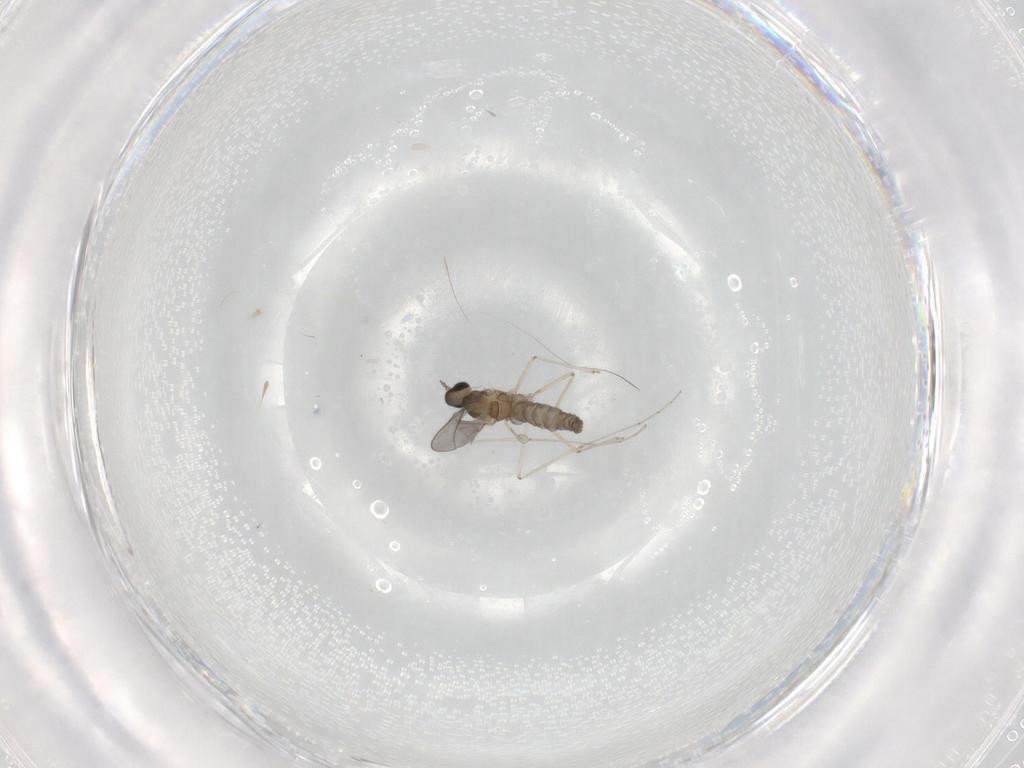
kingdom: Animalia
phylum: Arthropoda
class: Insecta
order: Diptera
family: Cecidomyiidae
